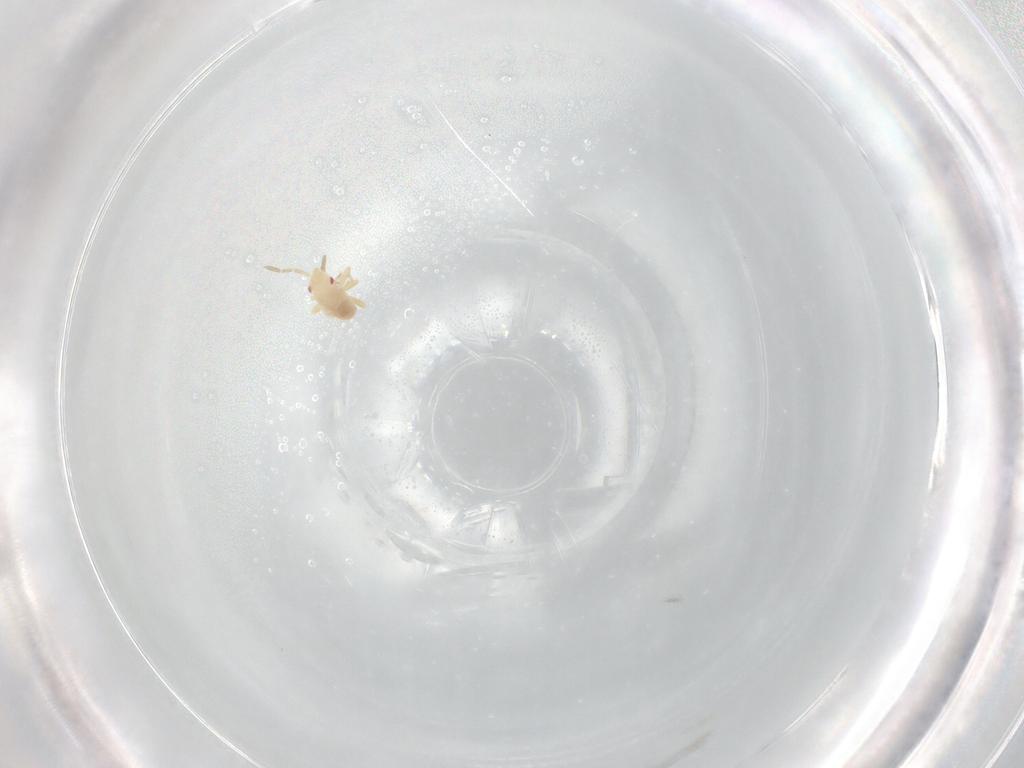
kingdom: Animalia
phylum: Arthropoda
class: Insecta
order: Hemiptera
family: Miridae
